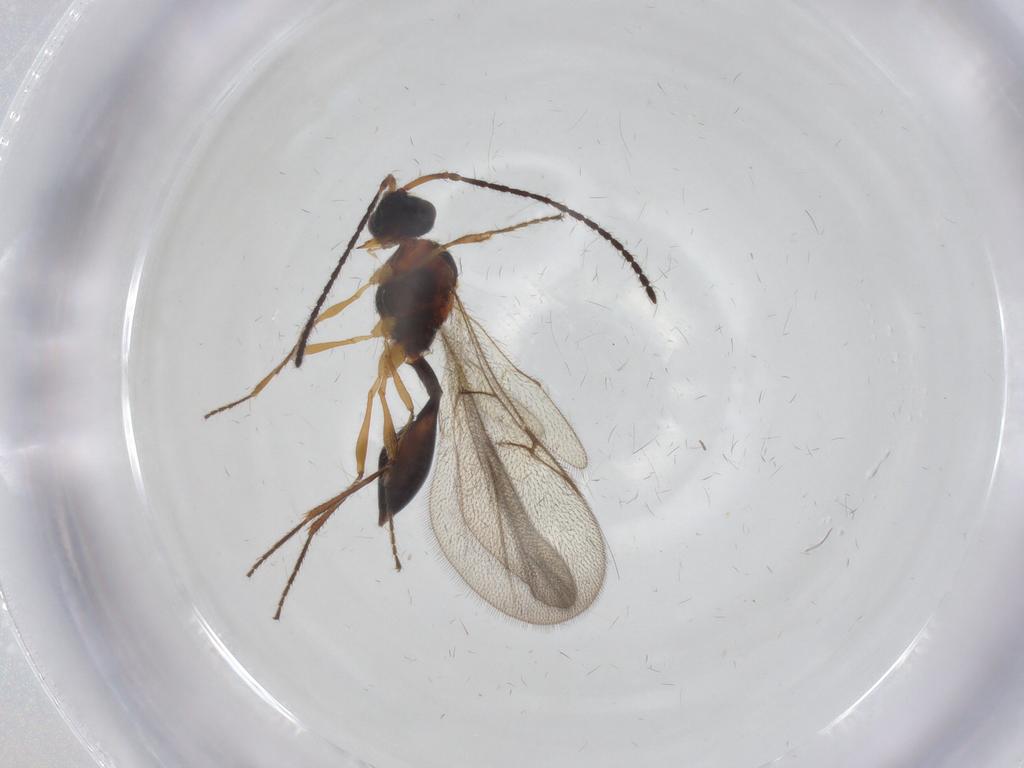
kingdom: Animalia
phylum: Arthropoda
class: Insecta
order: Hymenoptera
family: Diapriidae
